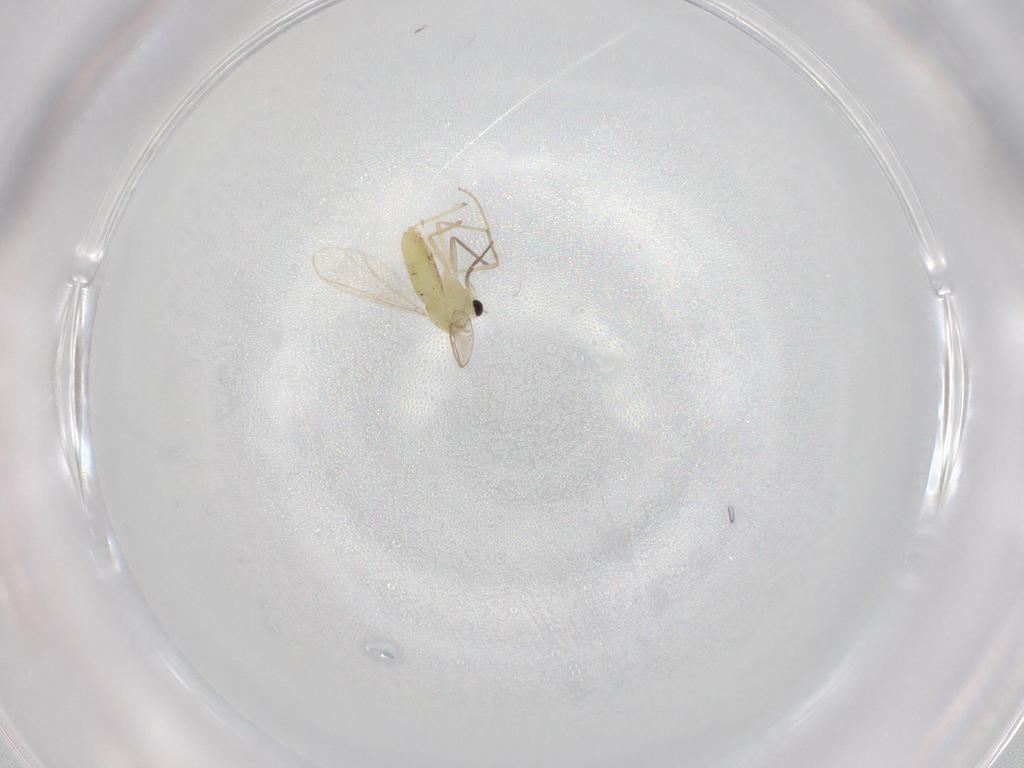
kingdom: Animalia
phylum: Arthropoda
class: Insecta
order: Diptera
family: Chironomidae
